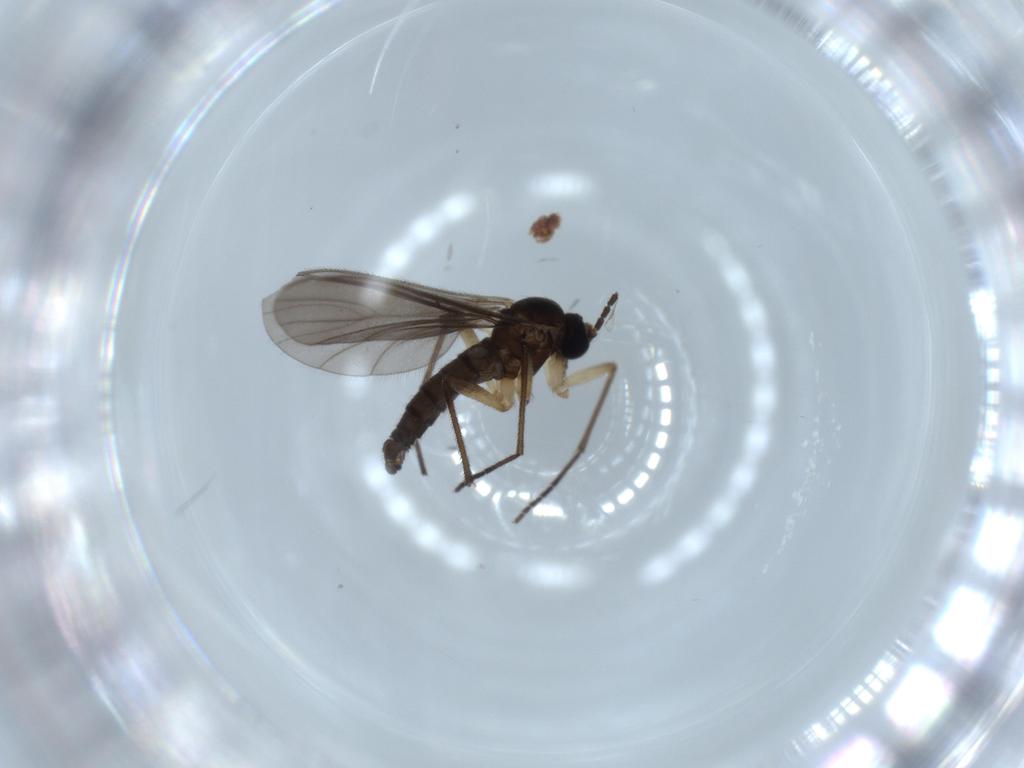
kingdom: Animalia
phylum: Arthropoda
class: Insecta
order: Diptera
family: Sciaridae
